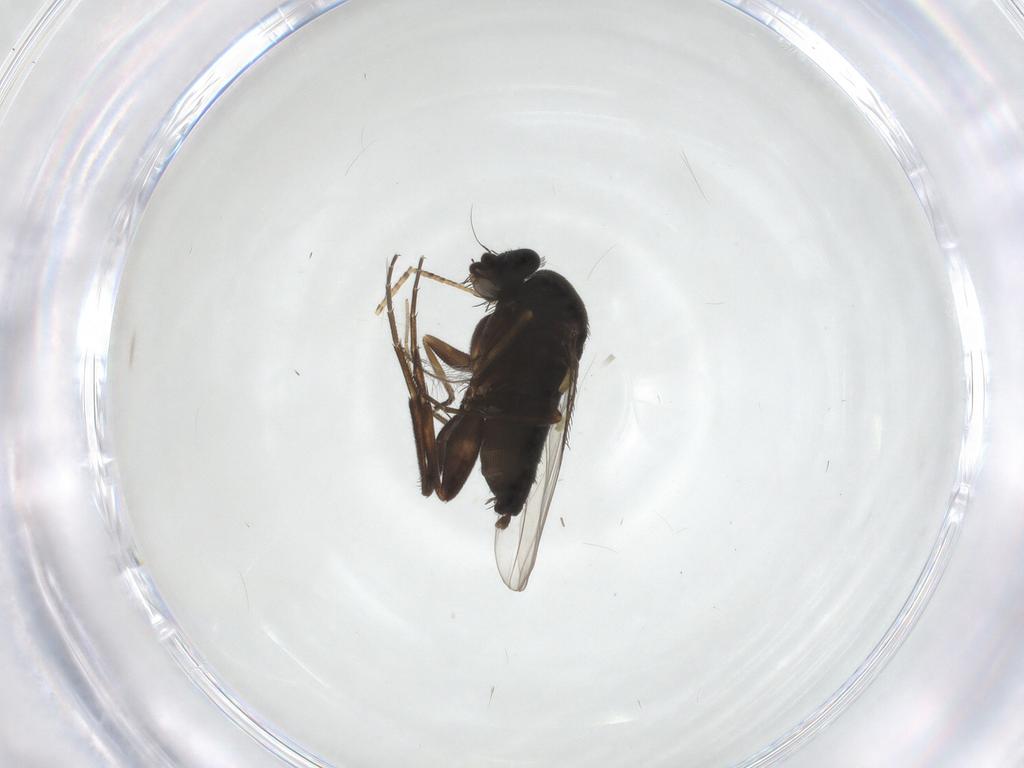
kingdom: Animalia
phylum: Arthropoda
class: Insecta
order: Diptera
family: Phoridae
